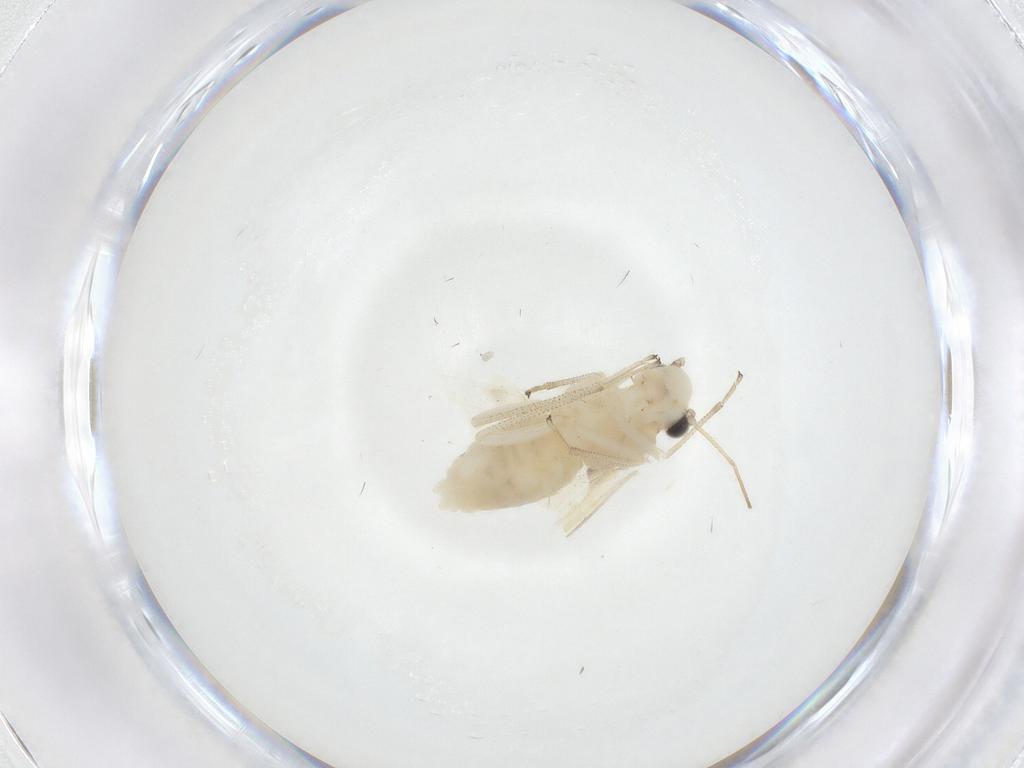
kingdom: Animalia
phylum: Arthropoda
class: Insecta
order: Psocodea
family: Caeciliusidae
